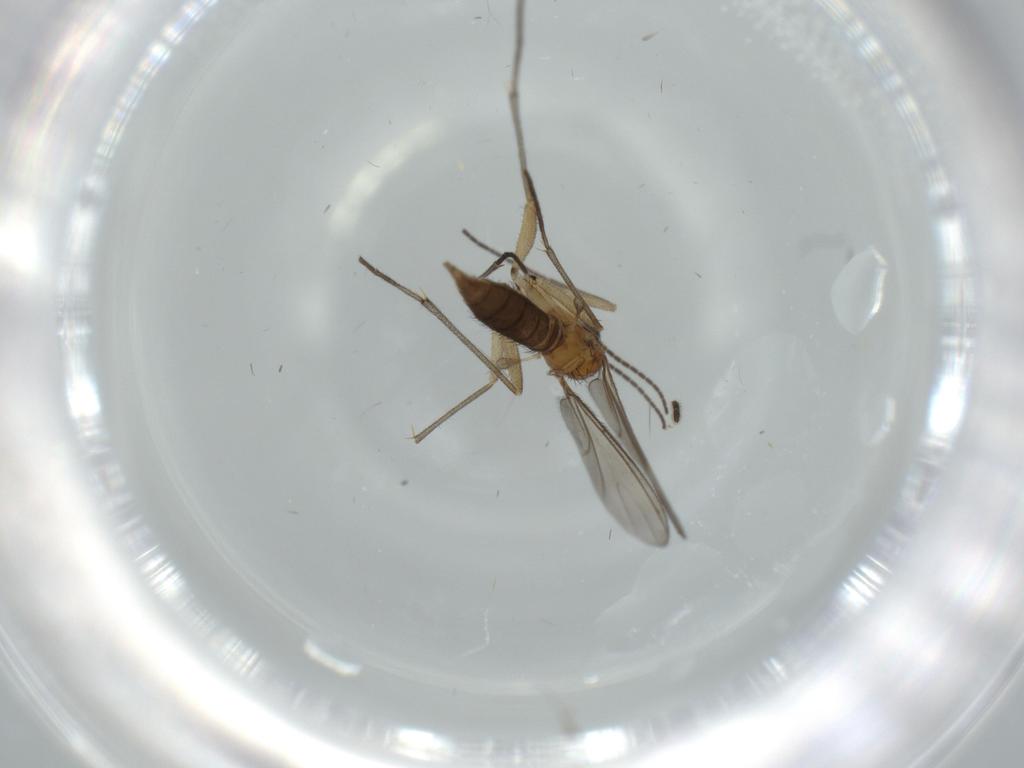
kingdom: Animalia
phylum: Arthropoda
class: Insecta
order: Diptera
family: Sciaridae
